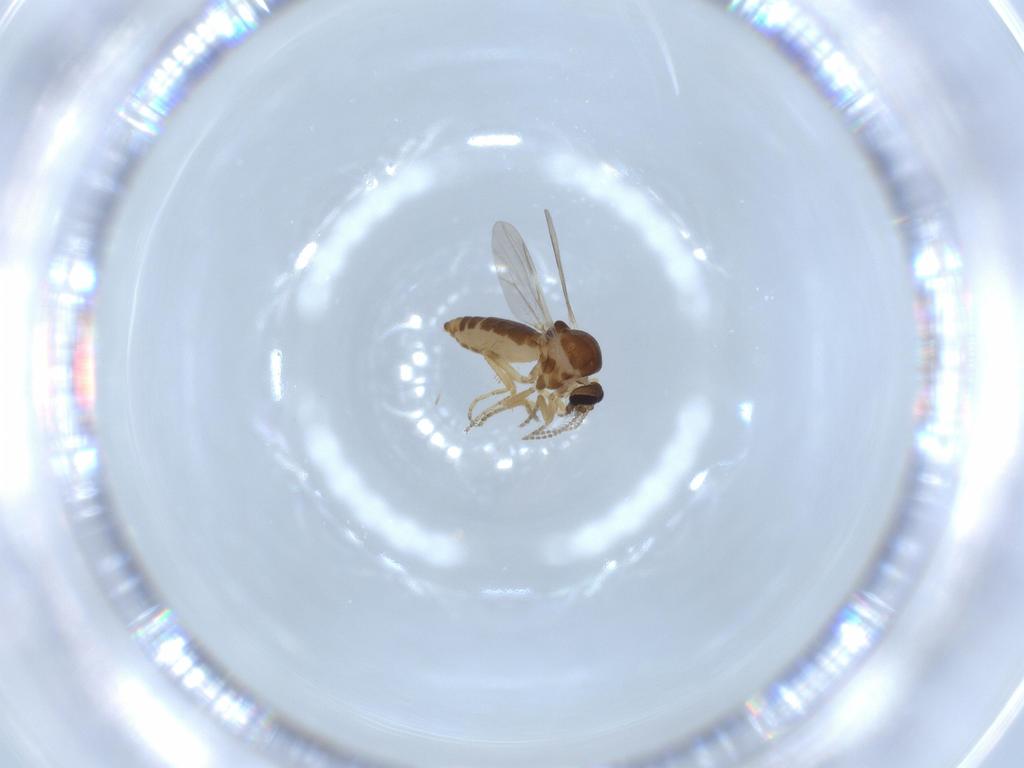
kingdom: Animalia
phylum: Arthropoda
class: Insecta
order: Diptera
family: Ceratopogonidae
